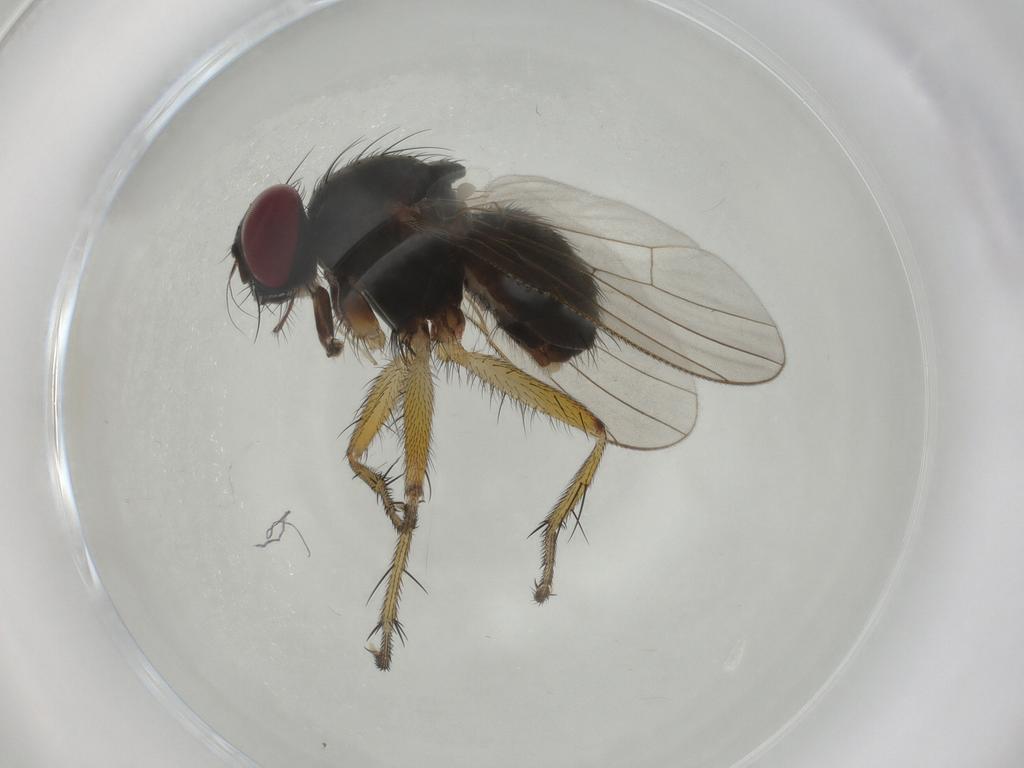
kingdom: Animalia
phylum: Arthropoda
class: Insecta
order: Diptera
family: Muscidae
